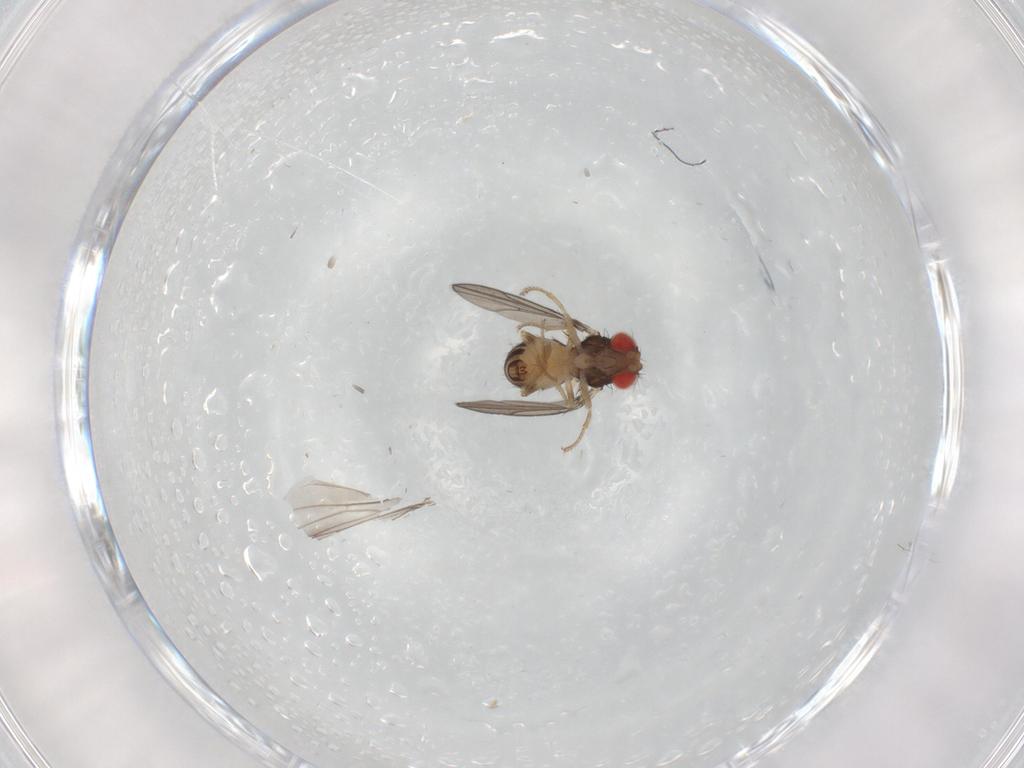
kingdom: Animalia
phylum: Arthropoda
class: Insecta
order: Diptera
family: Drosophilidae
